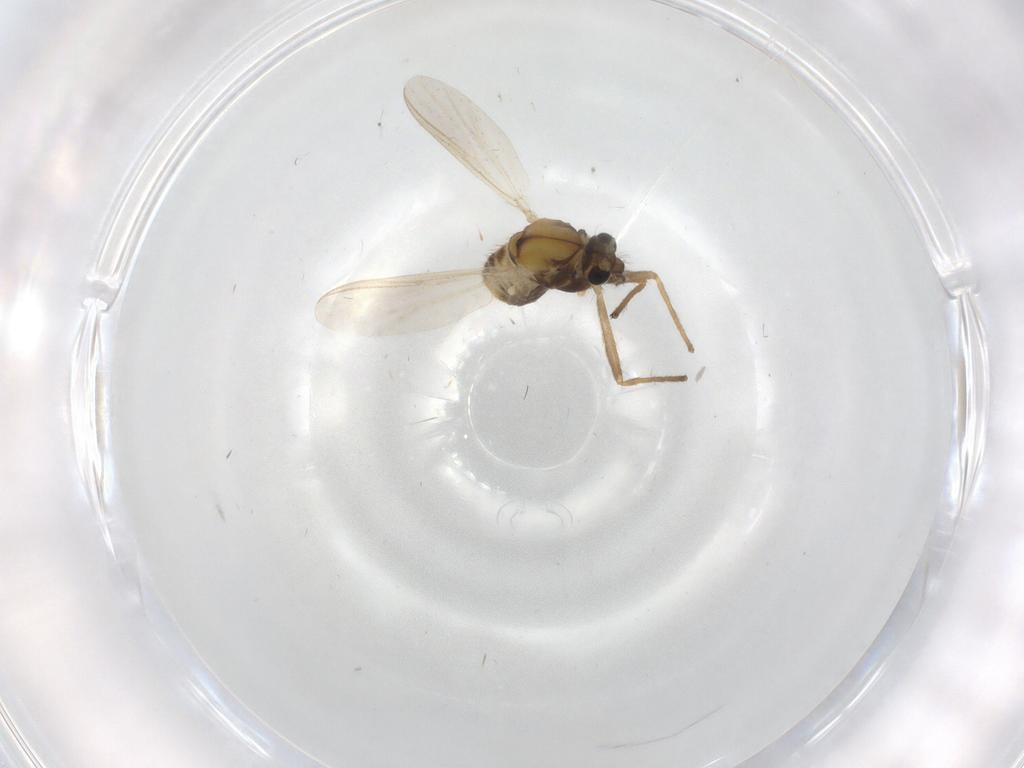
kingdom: Animalia
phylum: Arthropoda
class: Insecta
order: Diptera
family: Chironomidae
